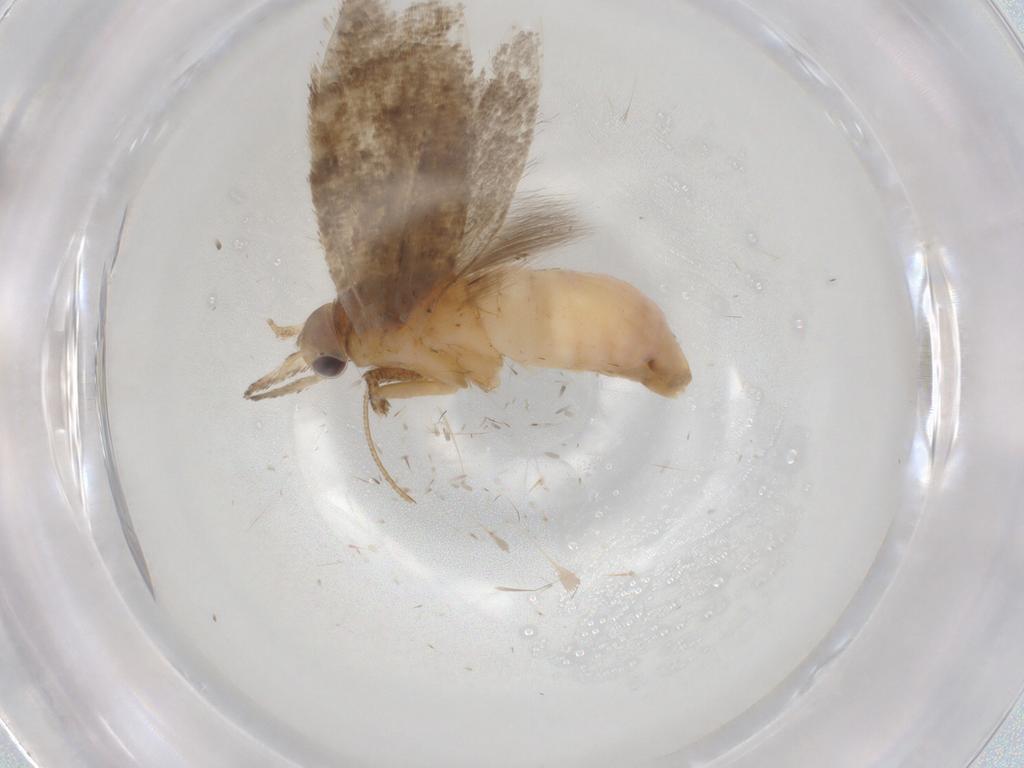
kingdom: Animalia
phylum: Arthropoda
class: Insecta
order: Lepidoptera
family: Plutellidae
